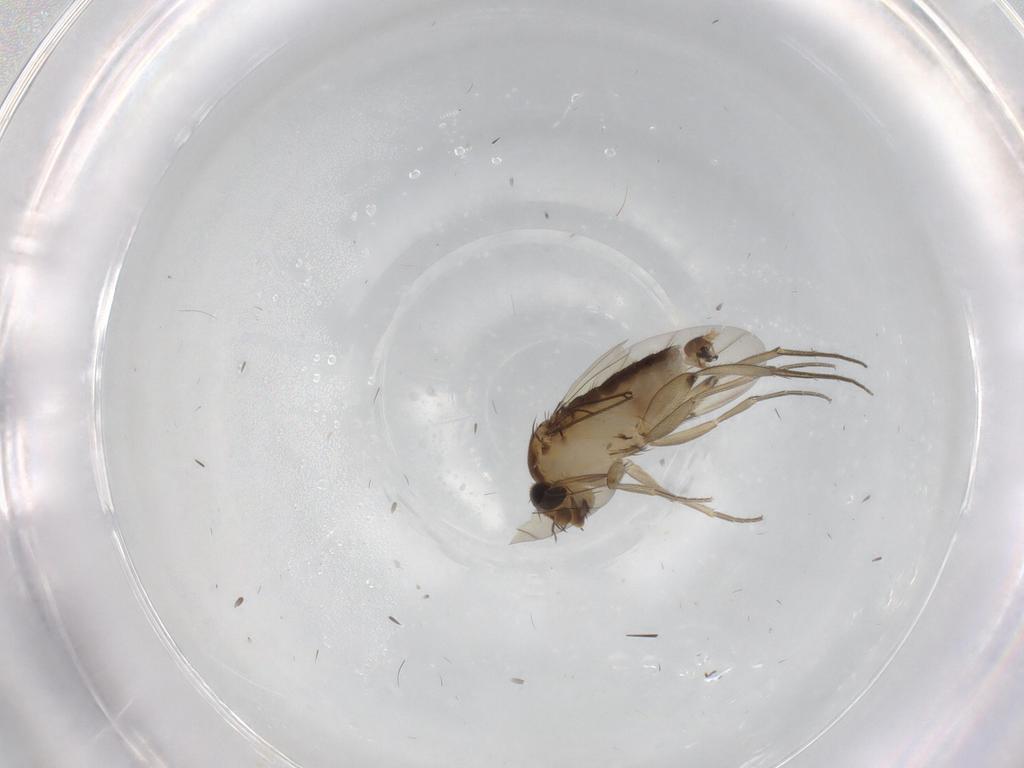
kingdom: Animalia
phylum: Arthropoda
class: Insecta
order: Diptera
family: Phoridae
